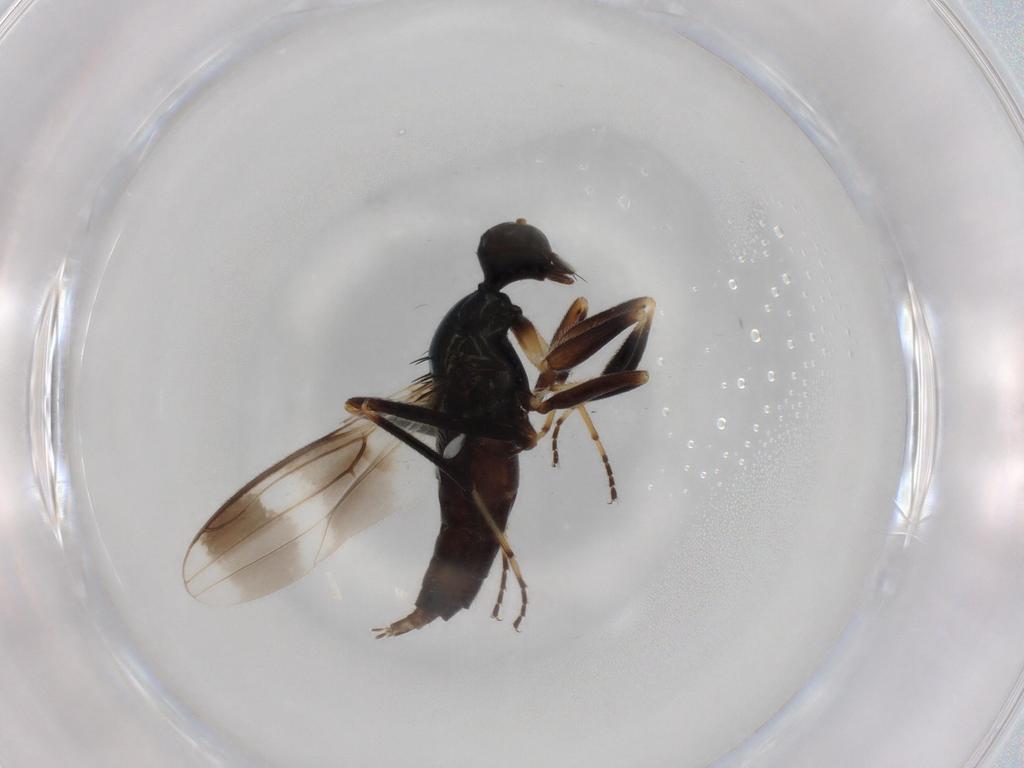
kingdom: Animalia
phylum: Arthropoda
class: Insecta
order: Diptera
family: Hybotidae
